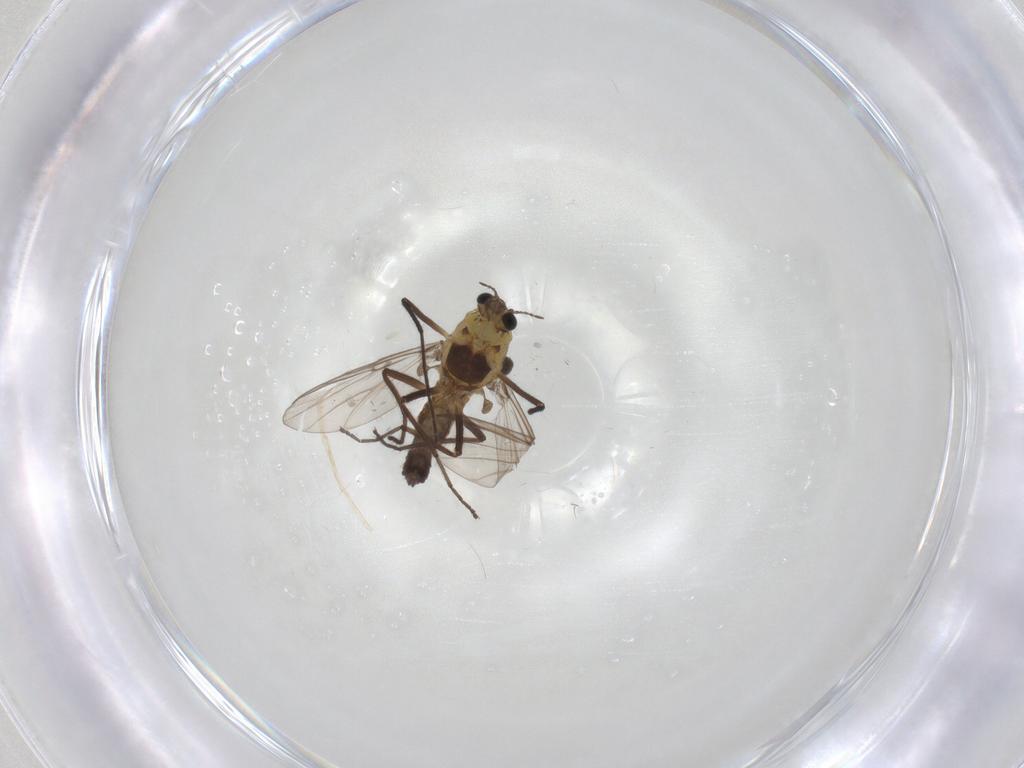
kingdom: Animalia
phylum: Arthropoda
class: Insecta
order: Diptera
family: Chironomidae
